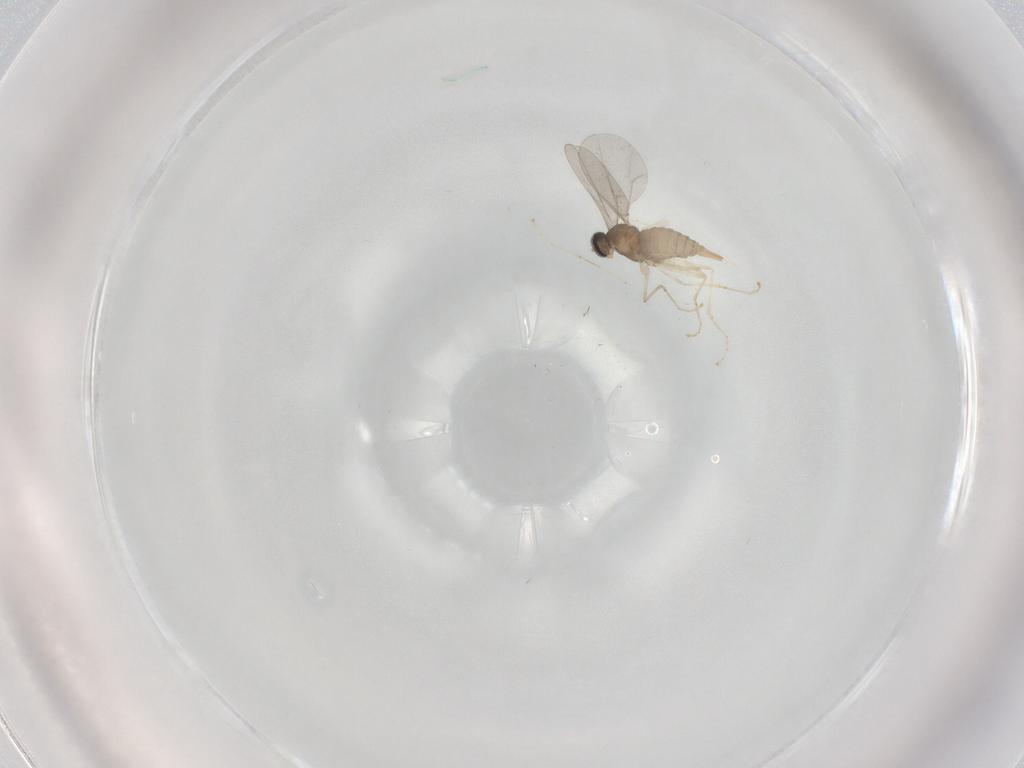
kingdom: Animalia
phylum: Arthropoda
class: Insecta
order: Diptera
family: Cecidomyiidae
